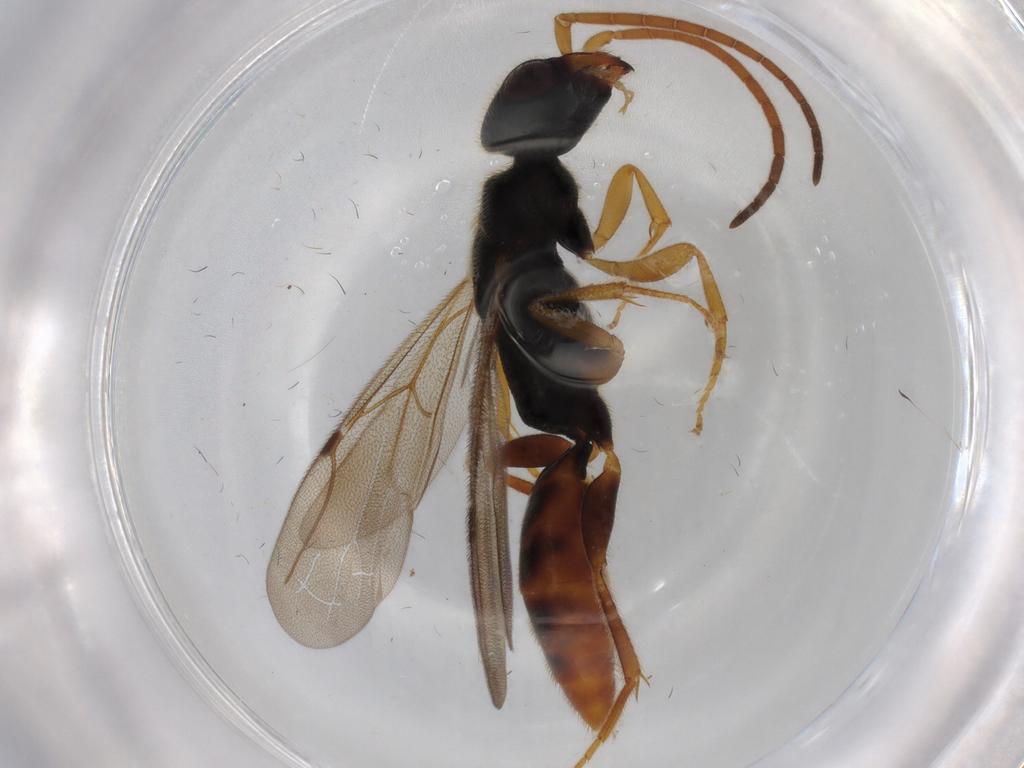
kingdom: Animalia
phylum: Arthropoda
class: Insecta
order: Hymenoptera
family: Bethylidae
